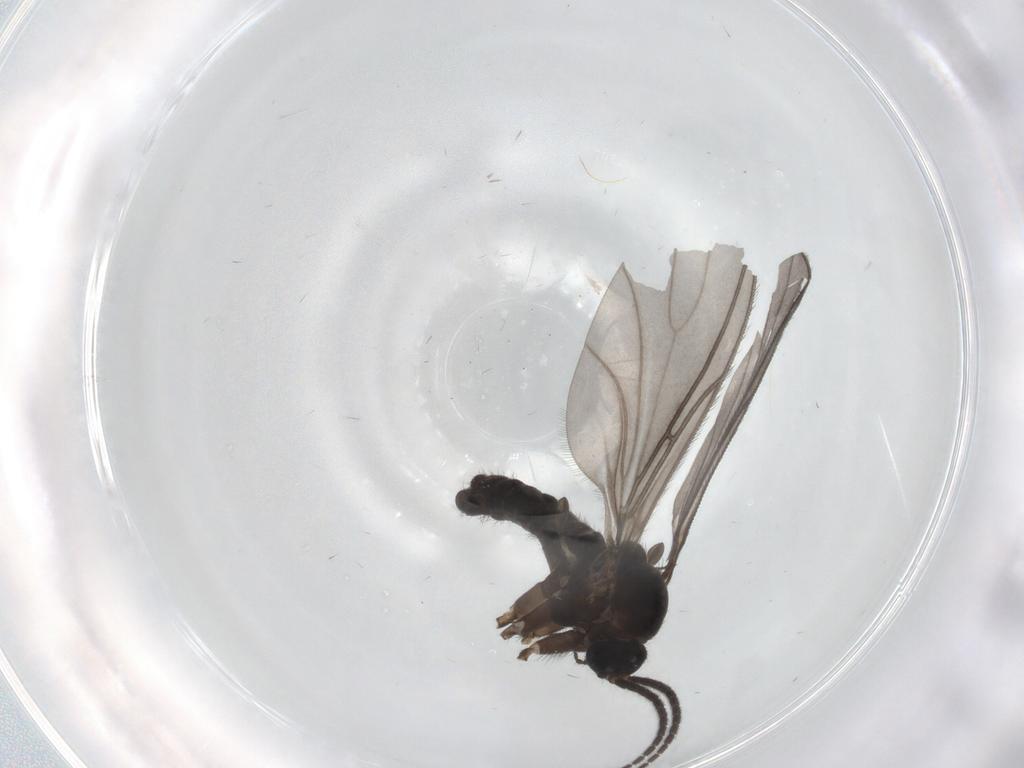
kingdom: Animalia
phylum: Arthropoda
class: Insecta
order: Diptera
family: Sciaridae
